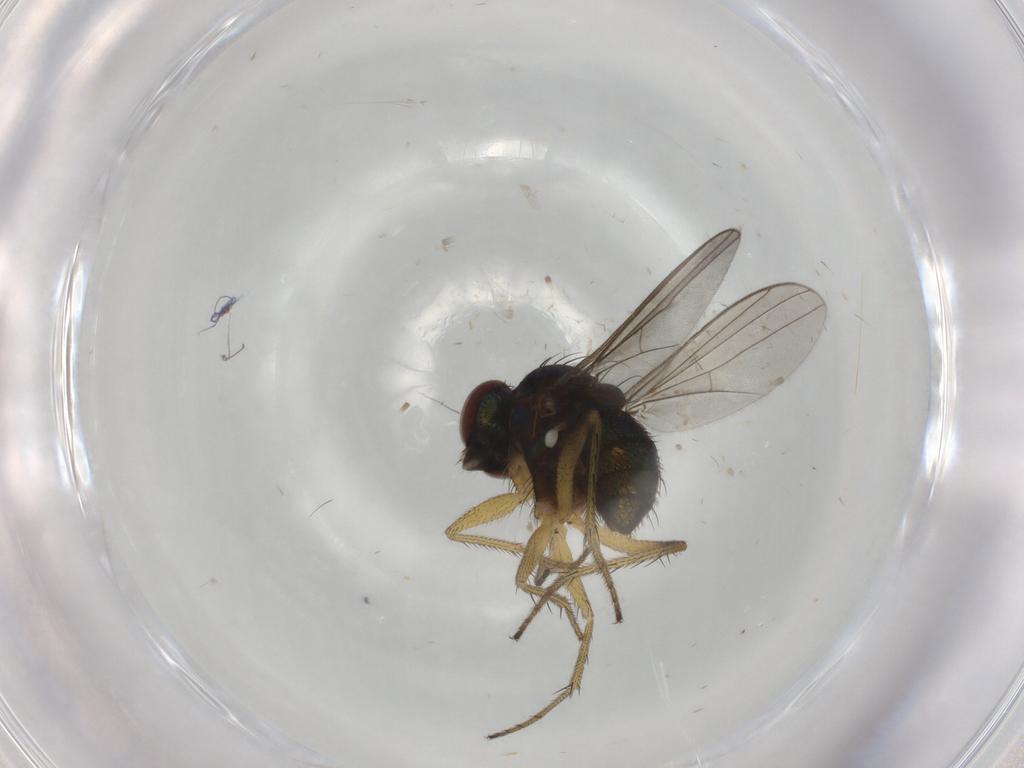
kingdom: Animalia
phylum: Arthropoda
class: Insecta
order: Diptera
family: Dolichopodidae
